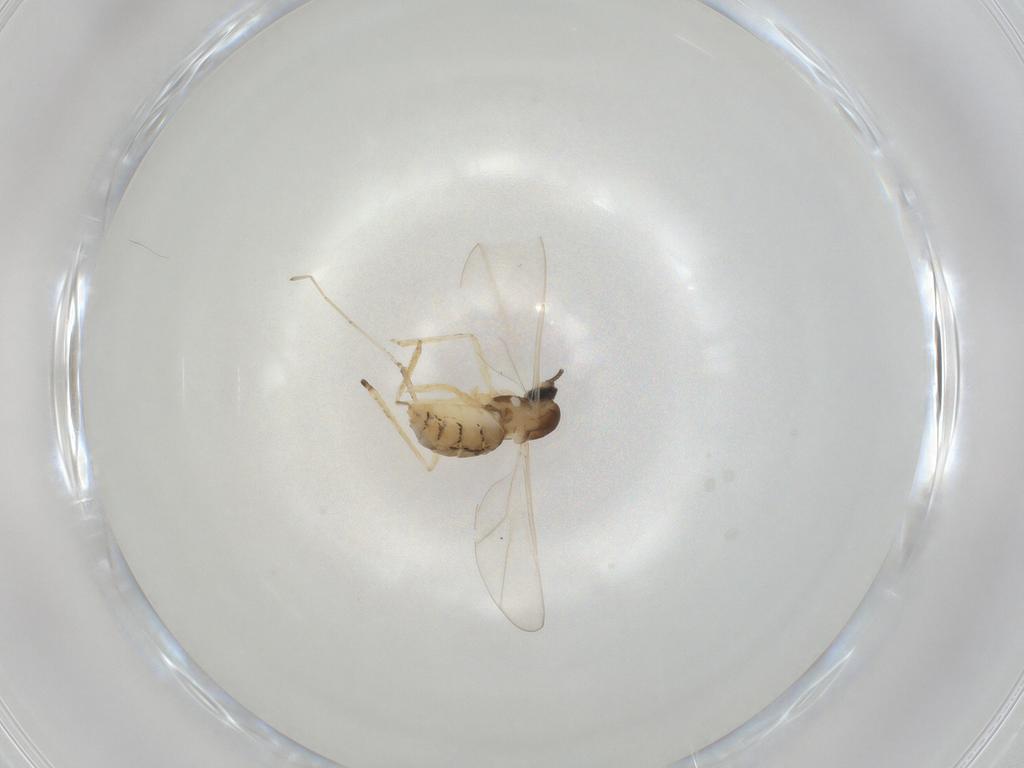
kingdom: Animalia
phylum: Arthropoda
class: Insecta
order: Diptera
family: Cecidomyiidae
